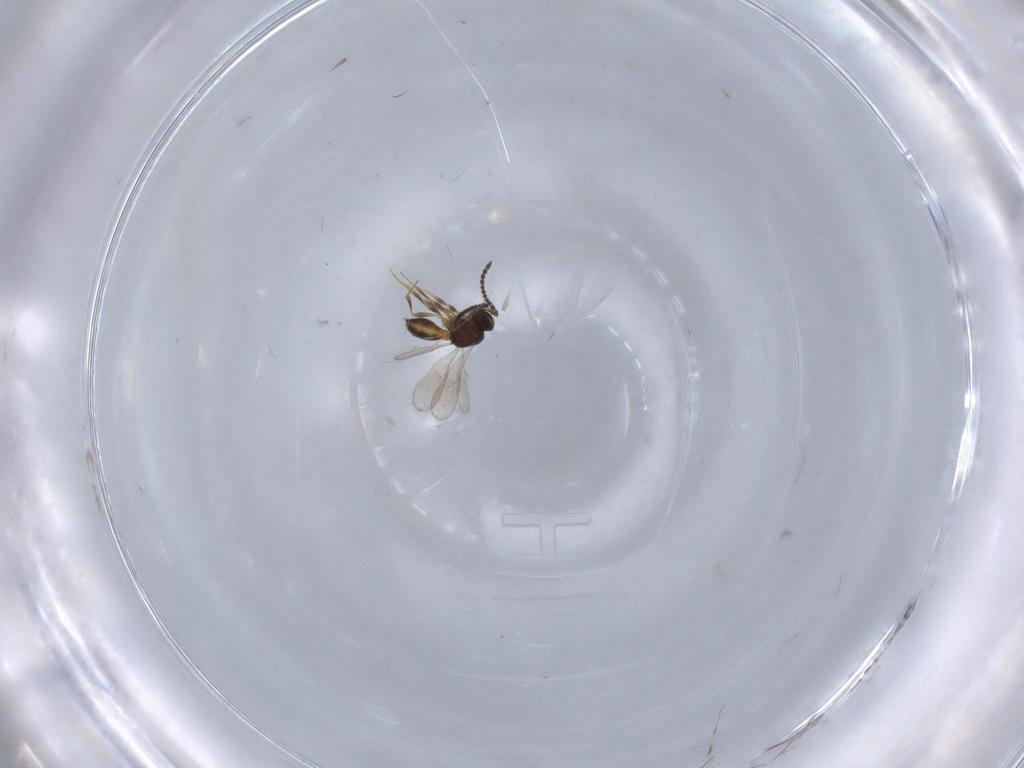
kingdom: Animalia
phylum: Arthropoda
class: Insecta
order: Hymenoptera
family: Scelionidae
